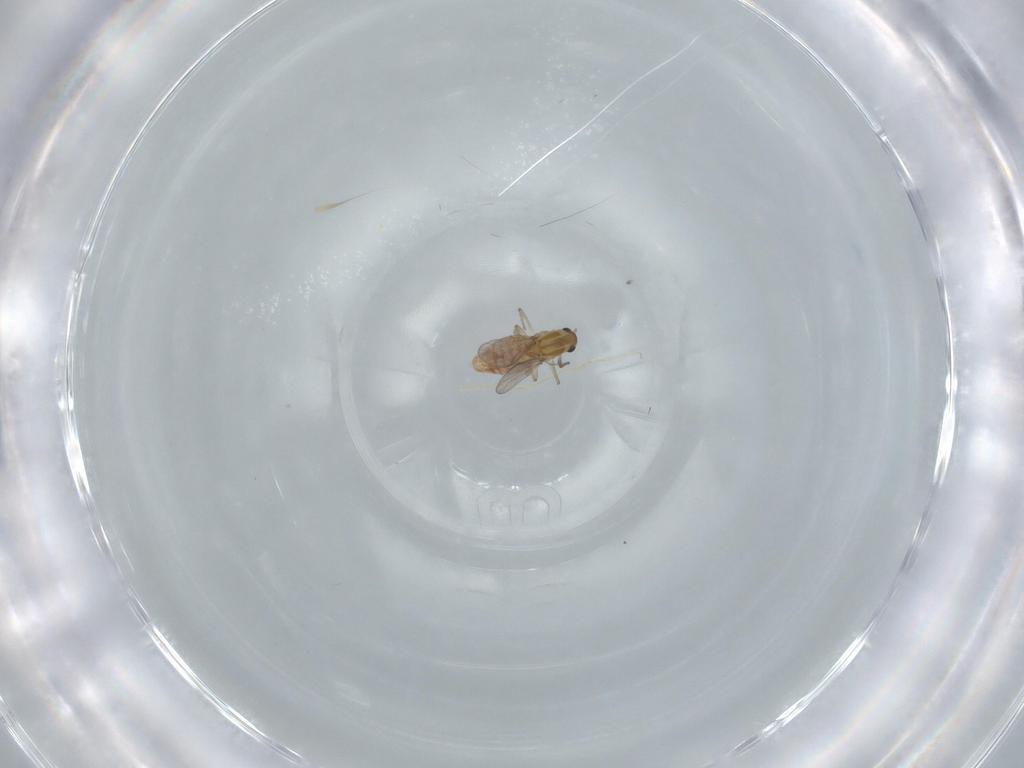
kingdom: Animalia
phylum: Arthropoda
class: Insecta
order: Diptera
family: Chironomidae
